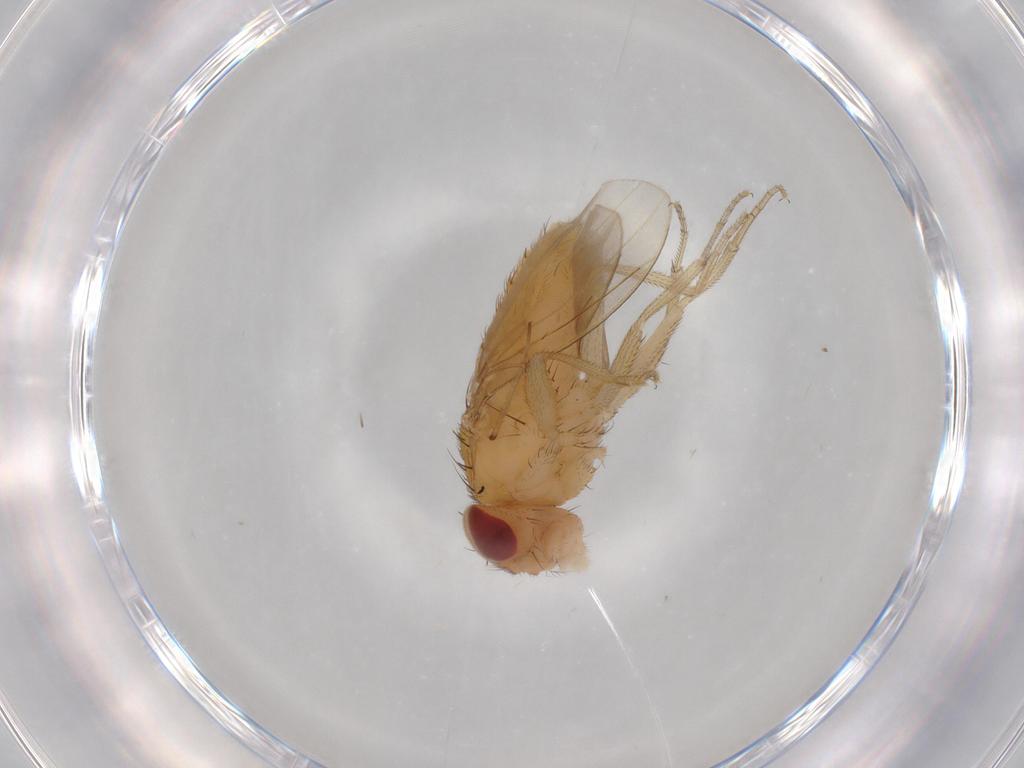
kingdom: Animalia
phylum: Arthropoda
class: Insecta
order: Diptera
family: Drosophilidae
